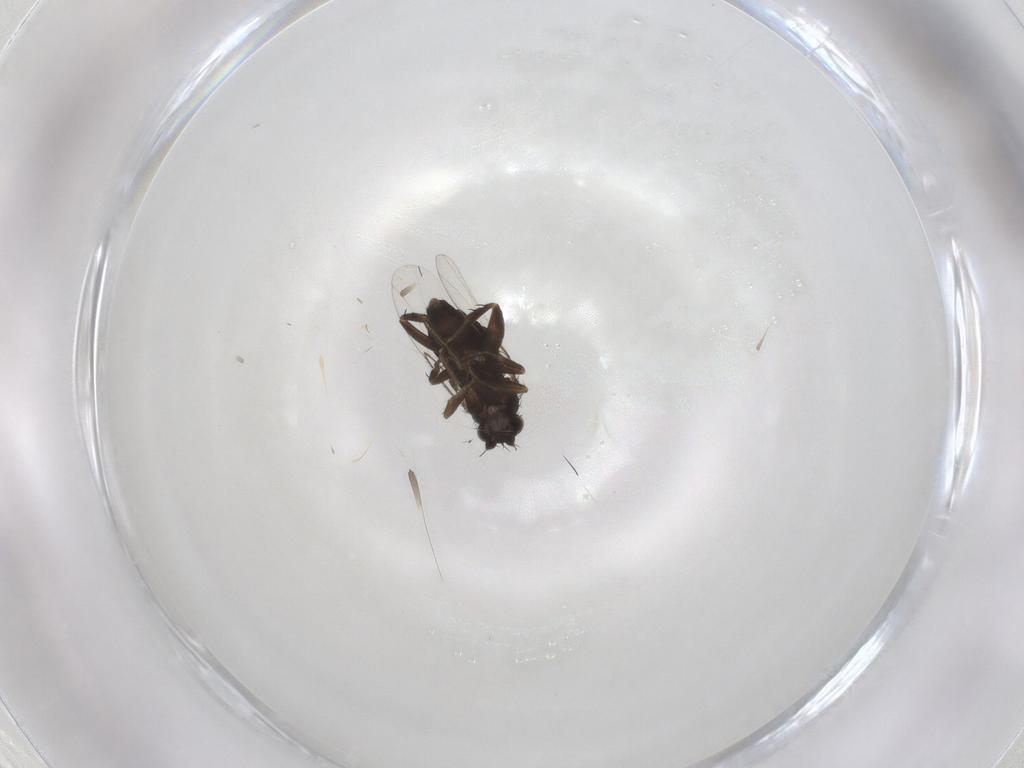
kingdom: Animalia
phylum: Arthropoda
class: Insecta
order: Diptera
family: Phoridae
